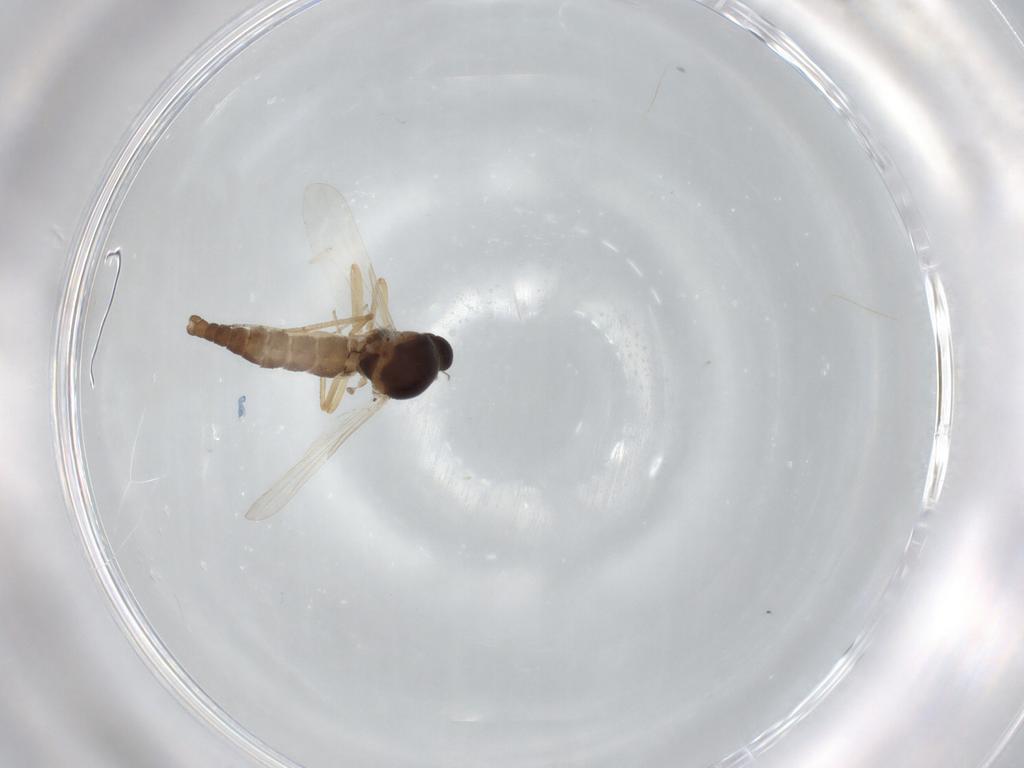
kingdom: Animalia
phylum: Arthropoda
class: Insecta
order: Diptera
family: Ceratopogonidae
